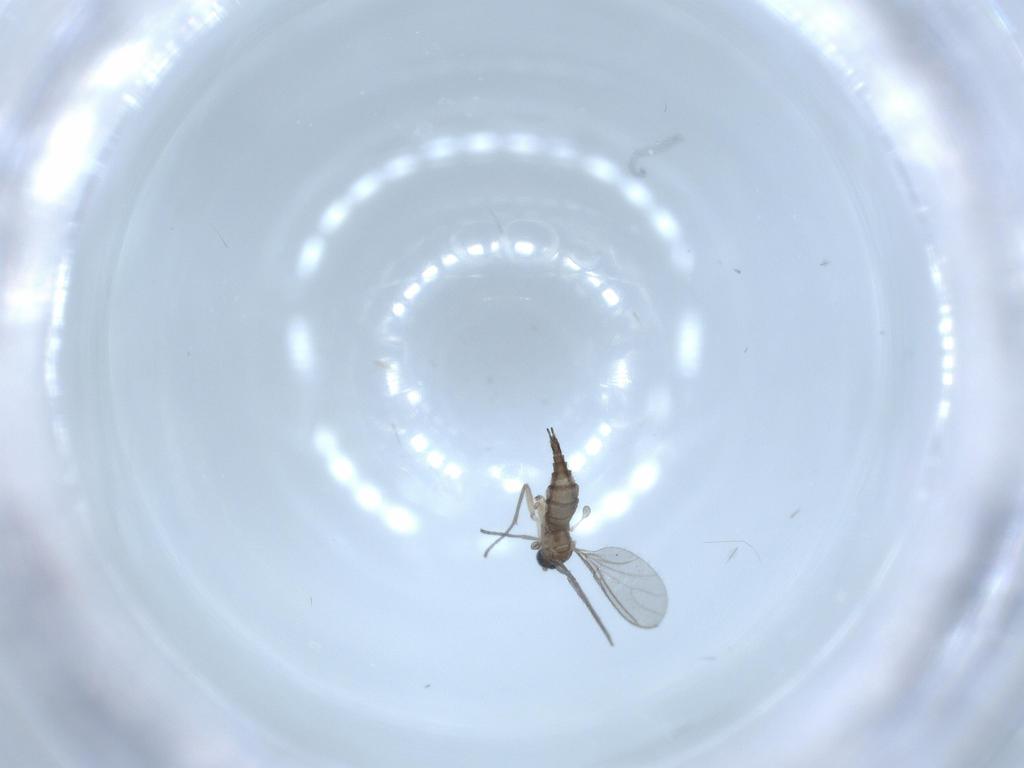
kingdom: Animalia
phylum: Arthropoda
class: Insecta
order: Diptera
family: Sciaridae
